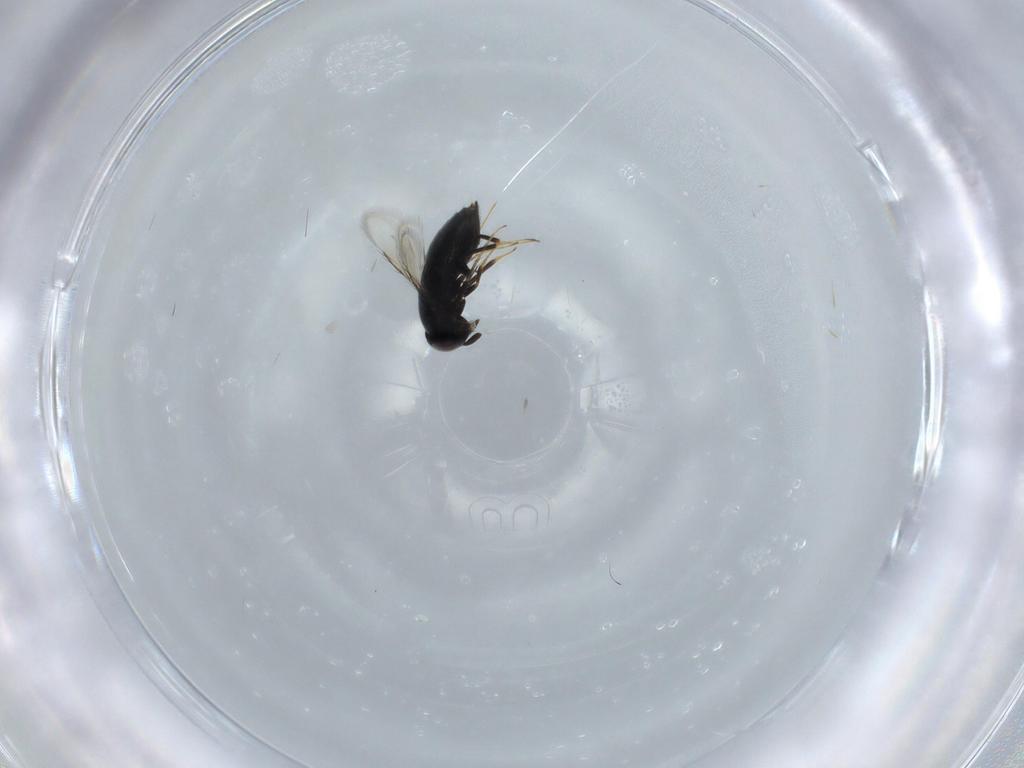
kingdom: Animalia
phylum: Arthropoda
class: Insecta
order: Hymenoptera
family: Signiphoridae
